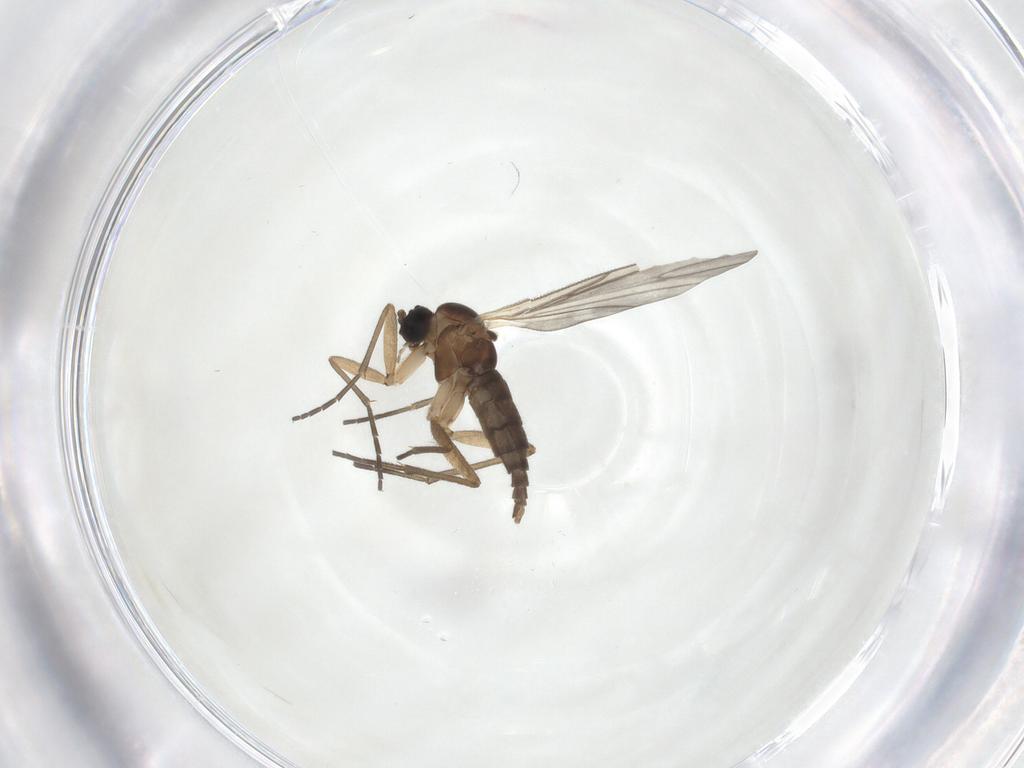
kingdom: Animalia
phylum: Arthropoda
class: Insecta
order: Diptera
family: Sciaridae
